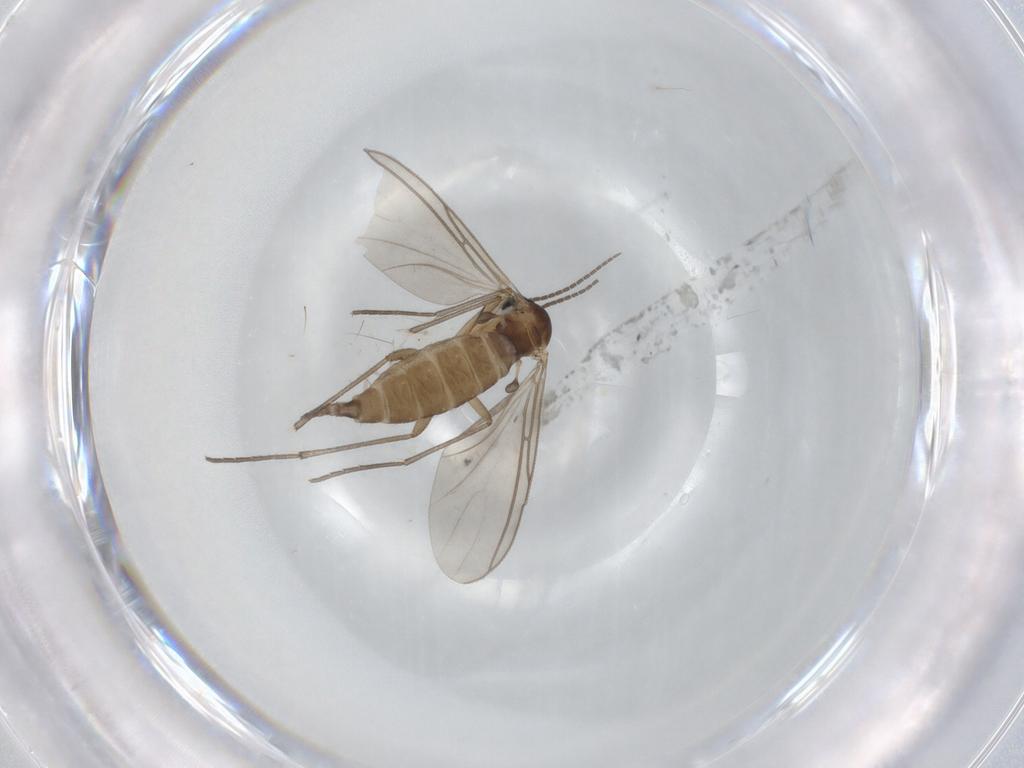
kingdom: Animalia
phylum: Arthropoda
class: Insecta
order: Diptera
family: Sciaridae
